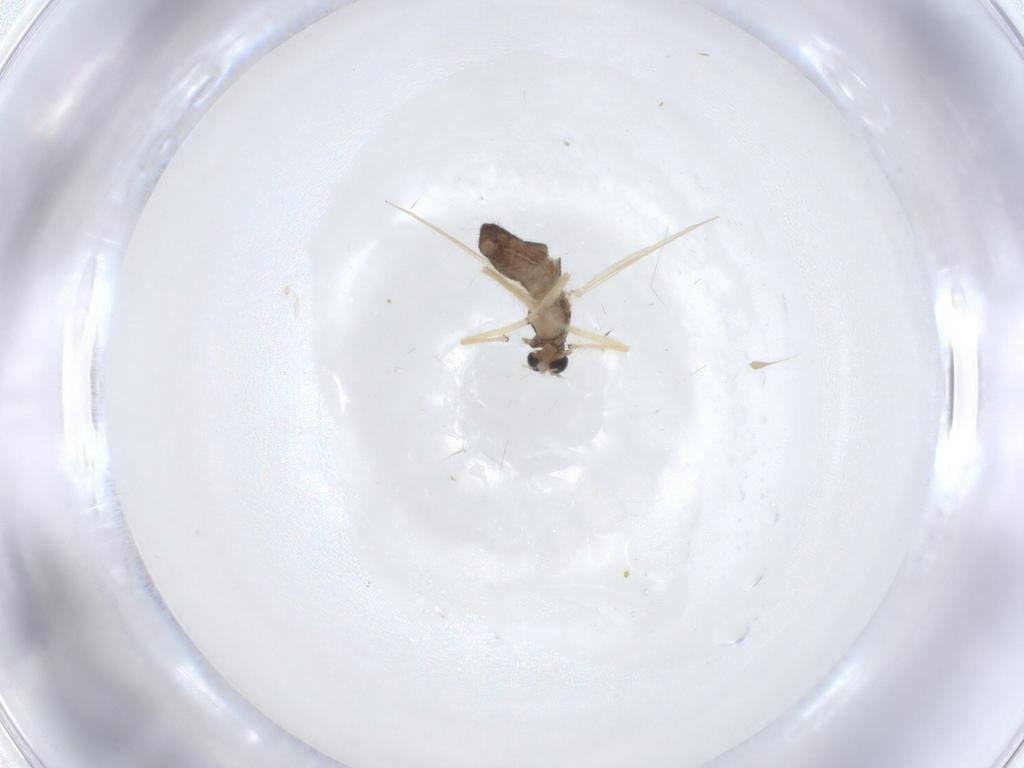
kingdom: Animalia
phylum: Arthropoda
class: Insecta
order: Diptera
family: Chironomidae
